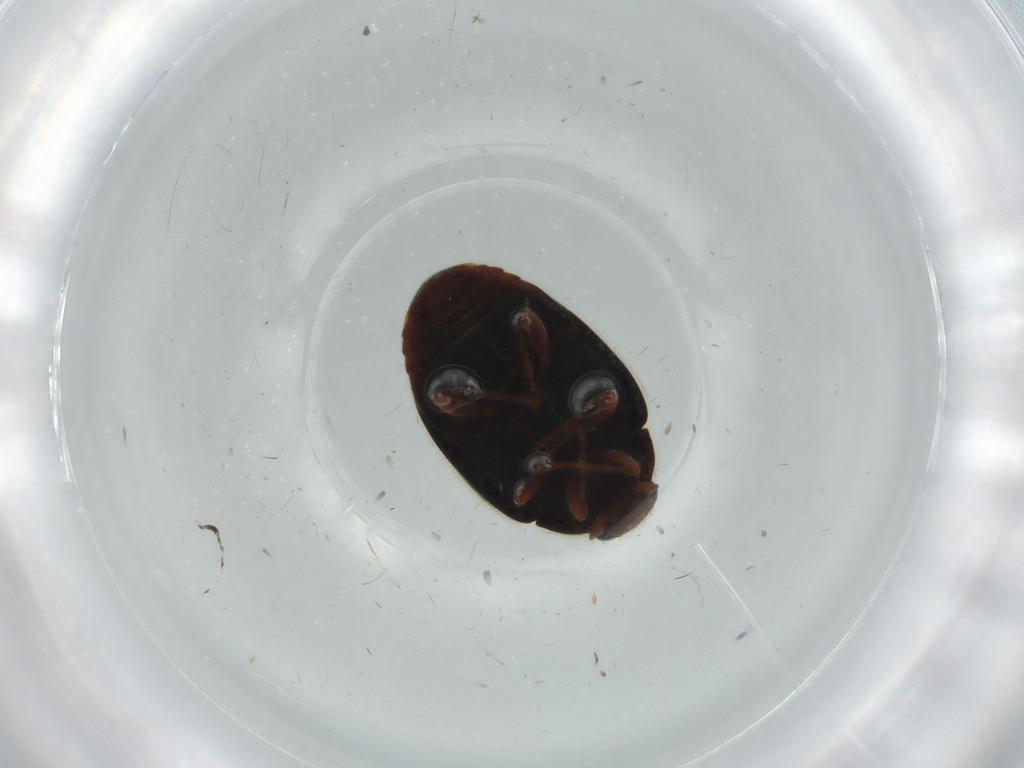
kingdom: Animalia
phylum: Arthropoda
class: Insecta
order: Coleoptera
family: Coccinellidae
